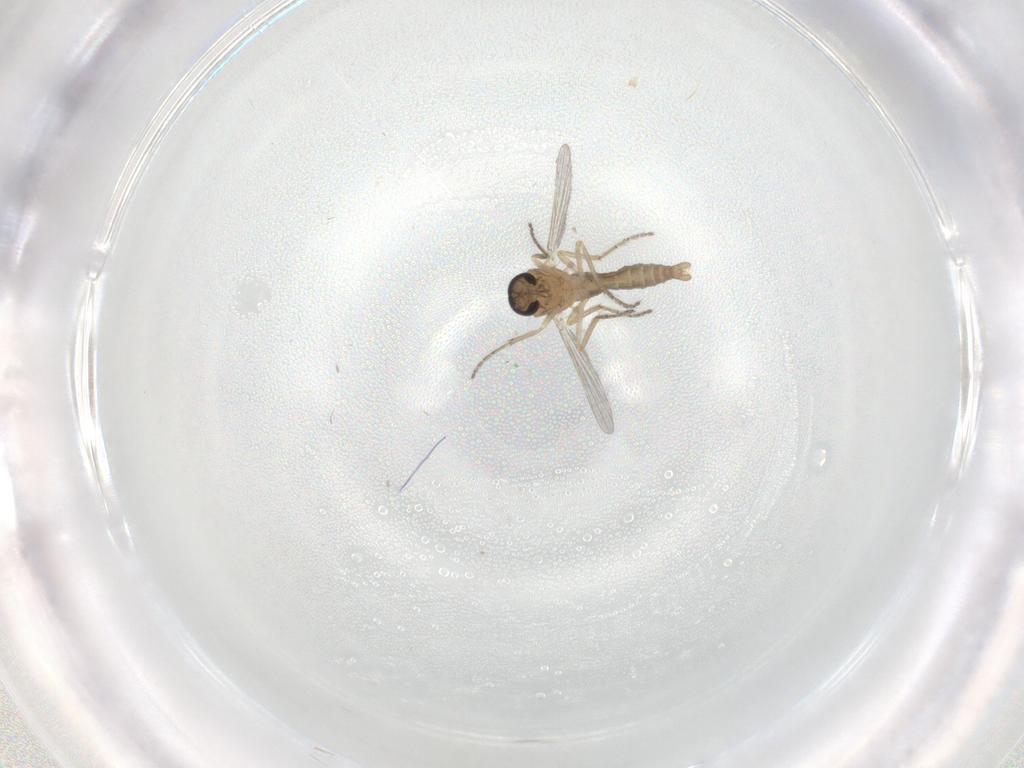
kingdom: Animalia
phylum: Arthropoda
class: Insecta
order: Diptera
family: Ceratopogonidae
